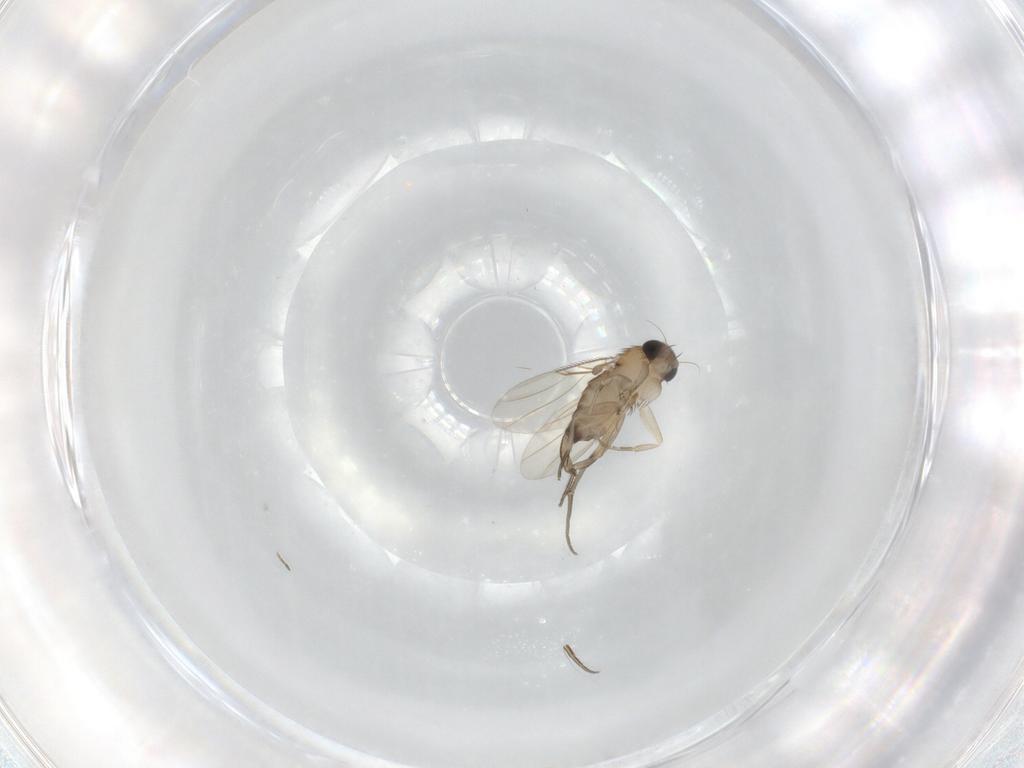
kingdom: Animalia
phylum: Arthropoda
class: Insecta
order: Diptera
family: Phoridae
